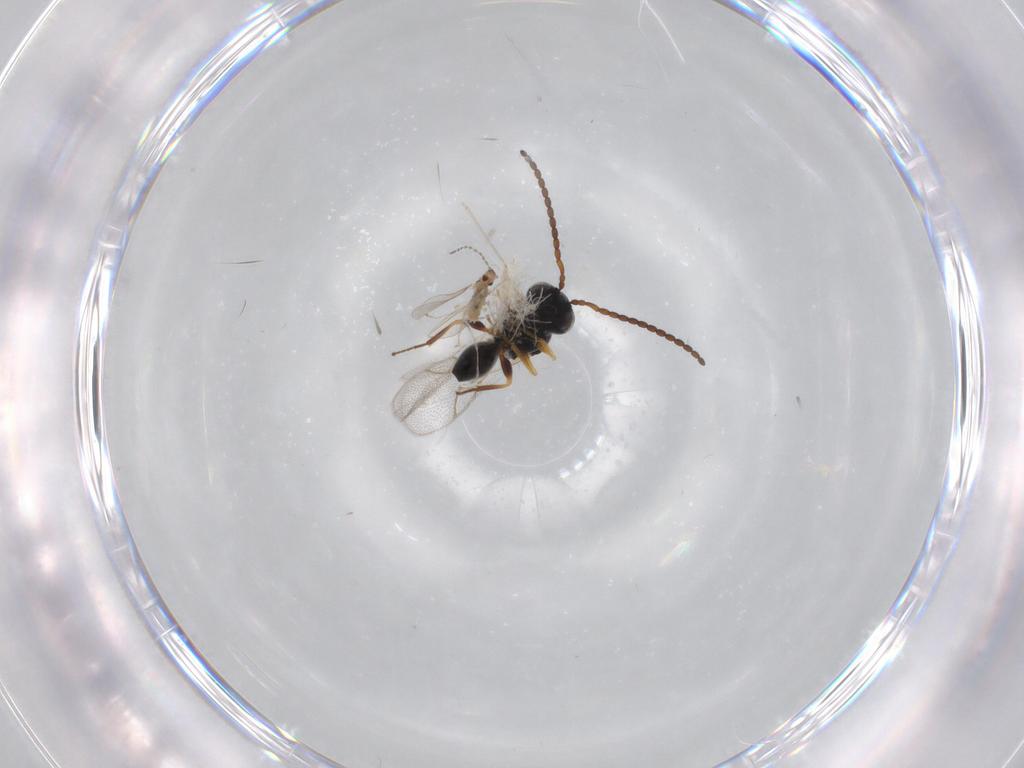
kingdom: Animalia
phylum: Arthropoda
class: Insecta
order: Hymenoptera
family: Figitidae
